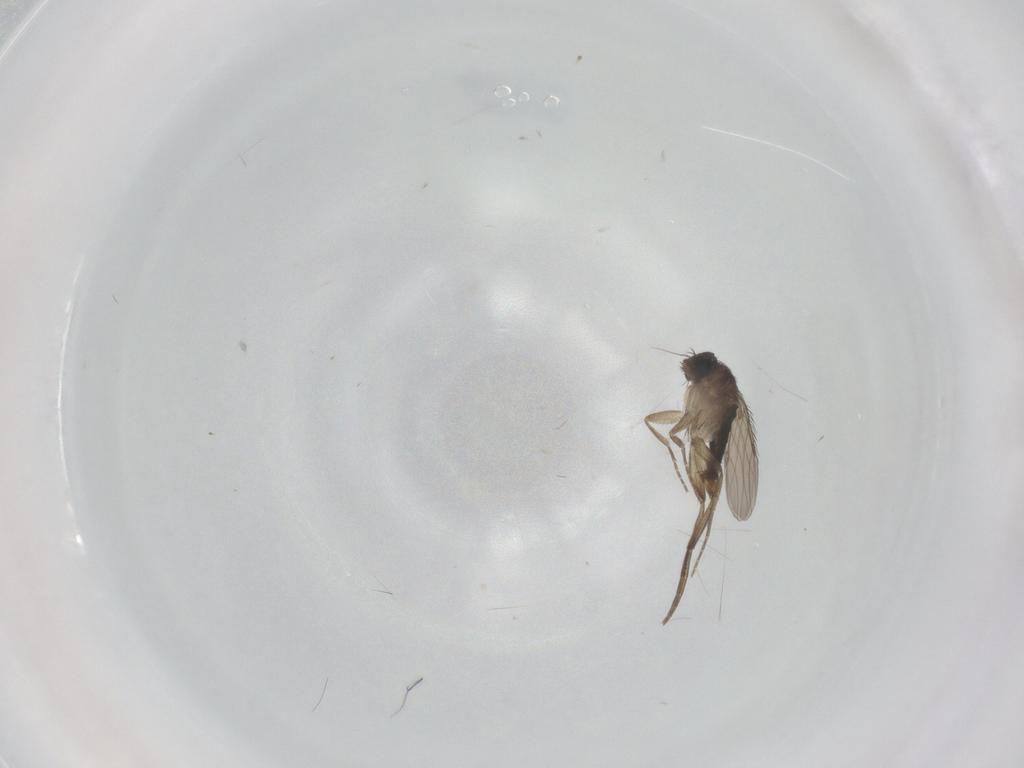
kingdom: Animalia
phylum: Arthropoda
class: Insecta
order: Diptera
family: Phoridae
